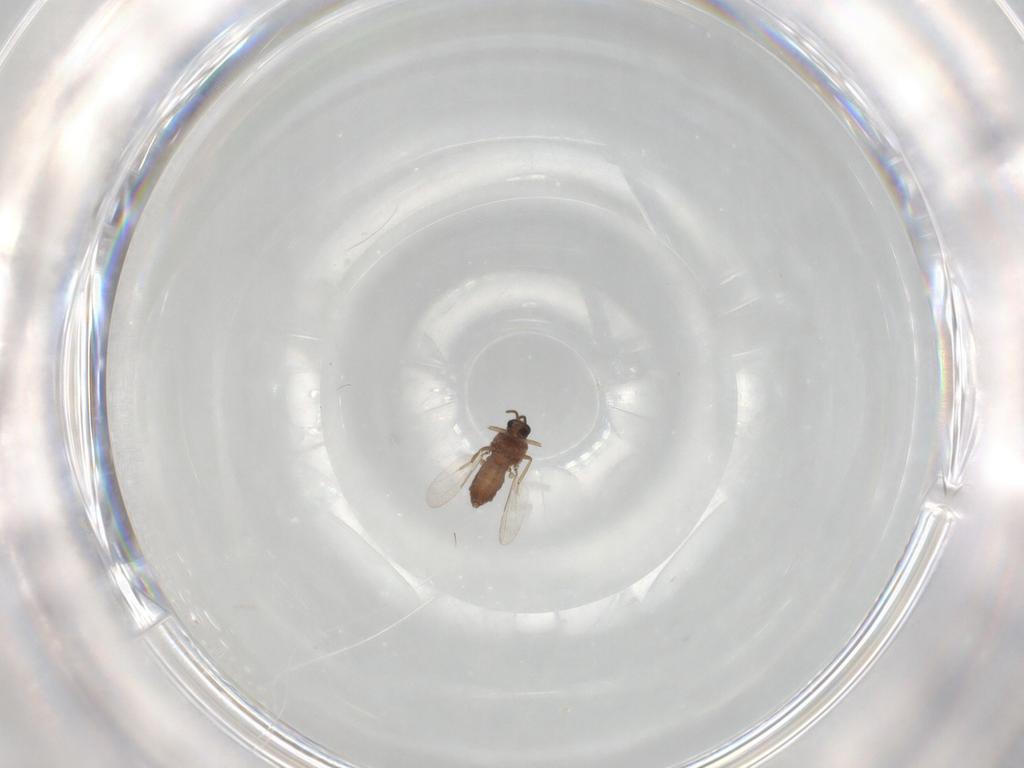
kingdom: Animalia
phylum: Arthropoda
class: Insecta
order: Diptera
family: Ceratopogonidae
